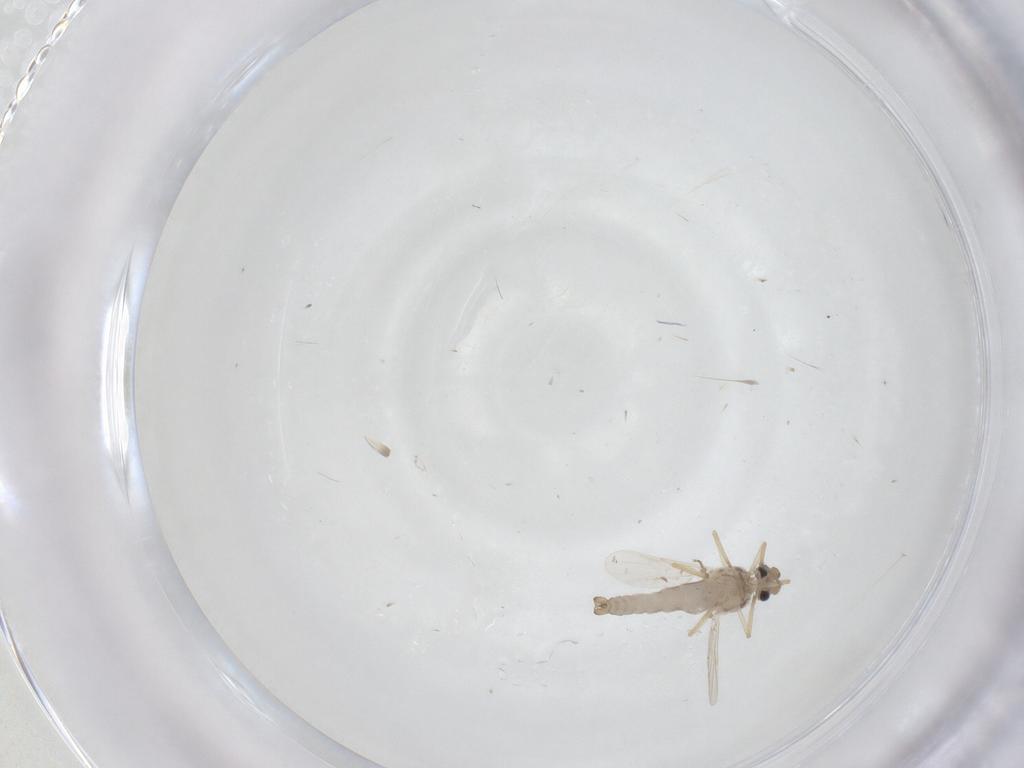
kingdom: Animalia
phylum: Arthropoda
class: Insecta
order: Diptera
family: Ceratopogonidae
